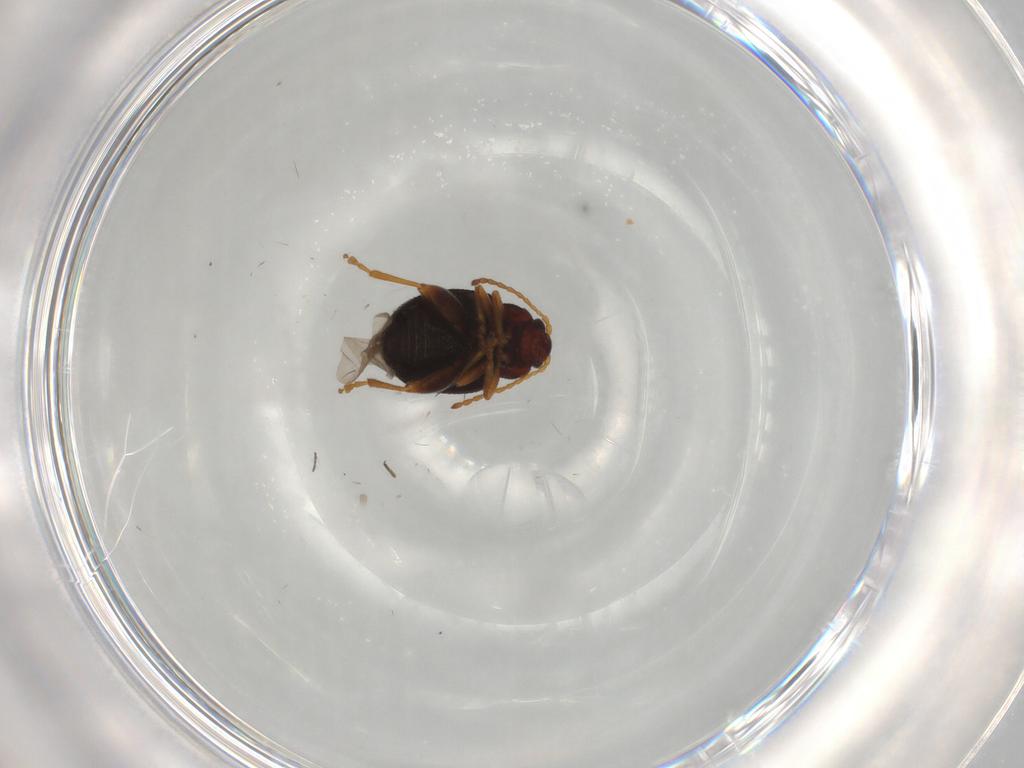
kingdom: Animalia
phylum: Arthropoda
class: Insecta
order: Coleoptera
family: Chrysomelidae
